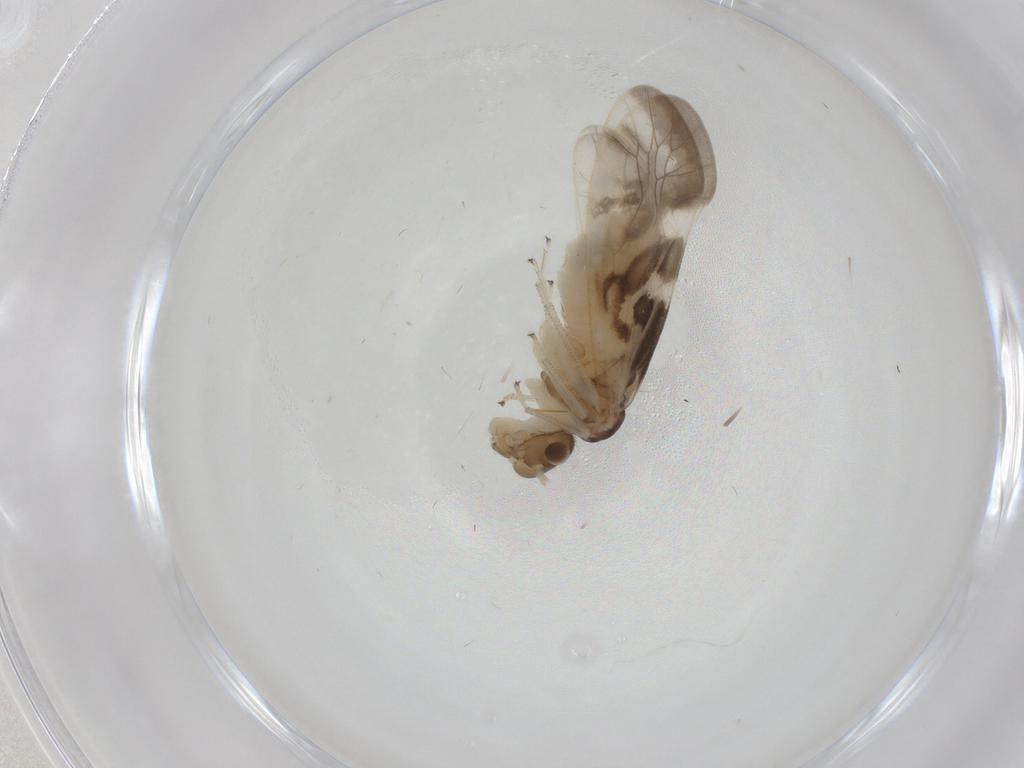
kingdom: Animalia
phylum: Arthropoda
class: Insecta
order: Psocodea
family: Caeciliusidae
